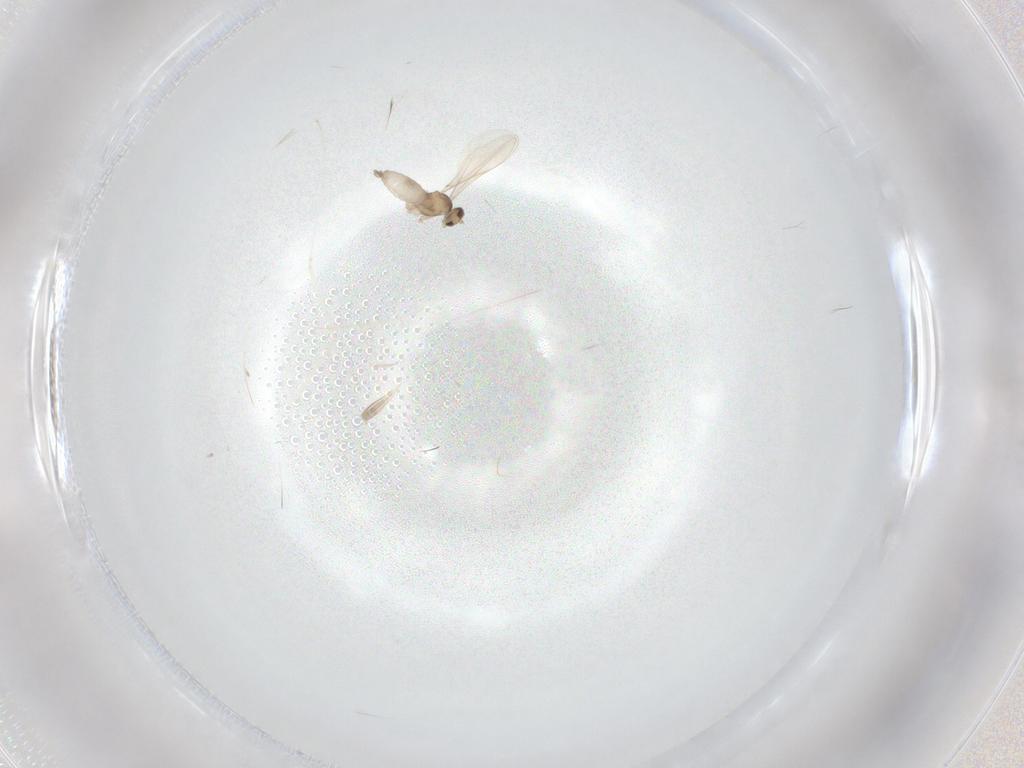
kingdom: Animalia
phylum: Arthropoda
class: Insecta
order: Diptera
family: Cecidomyiidae
